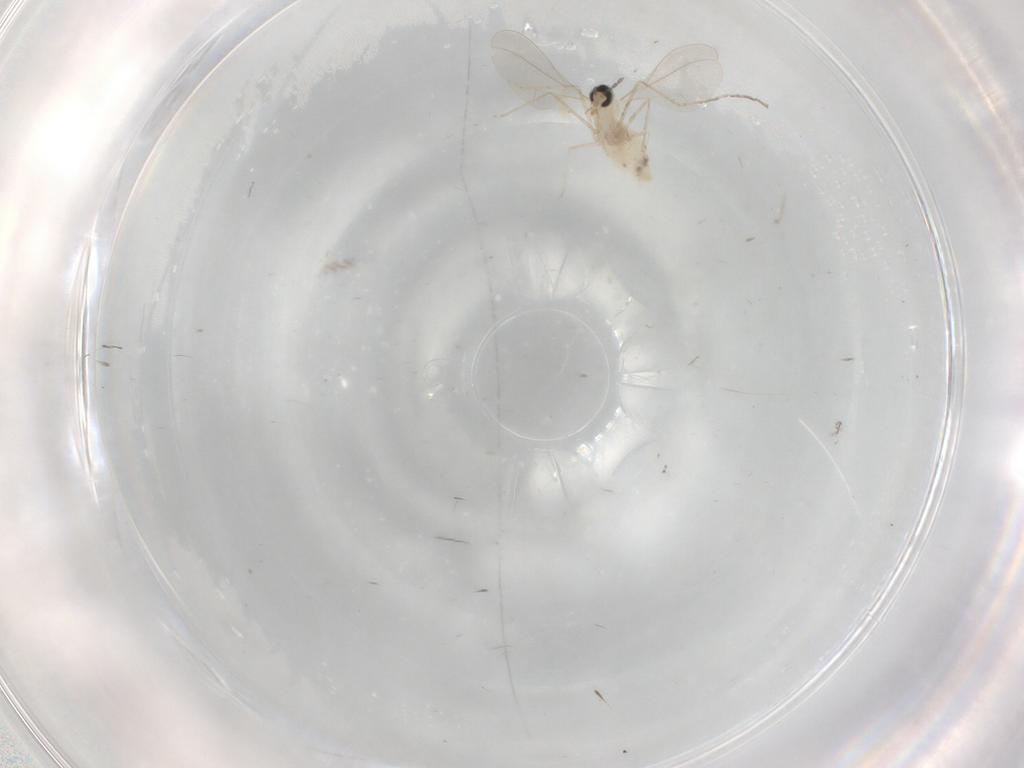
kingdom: Animalia
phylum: Arthropoda
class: Insecta
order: Diptera
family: Cecidomyiidae
